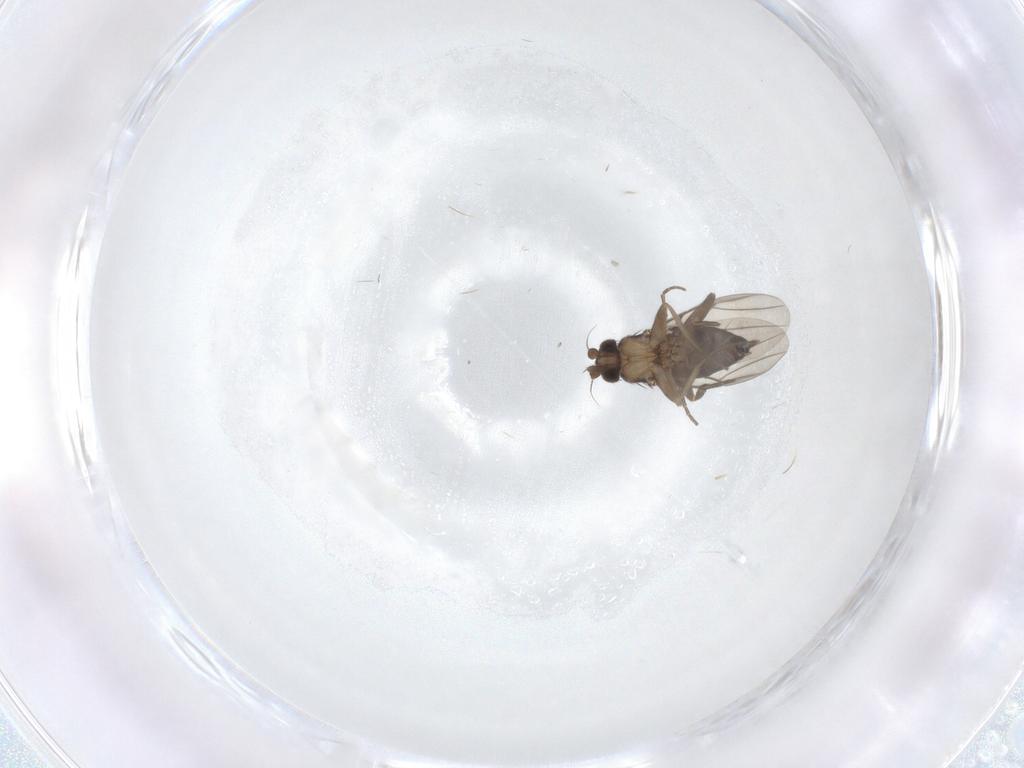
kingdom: Animalia
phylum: Arthropoda
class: Insecta
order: Diptera
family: Phoridae
